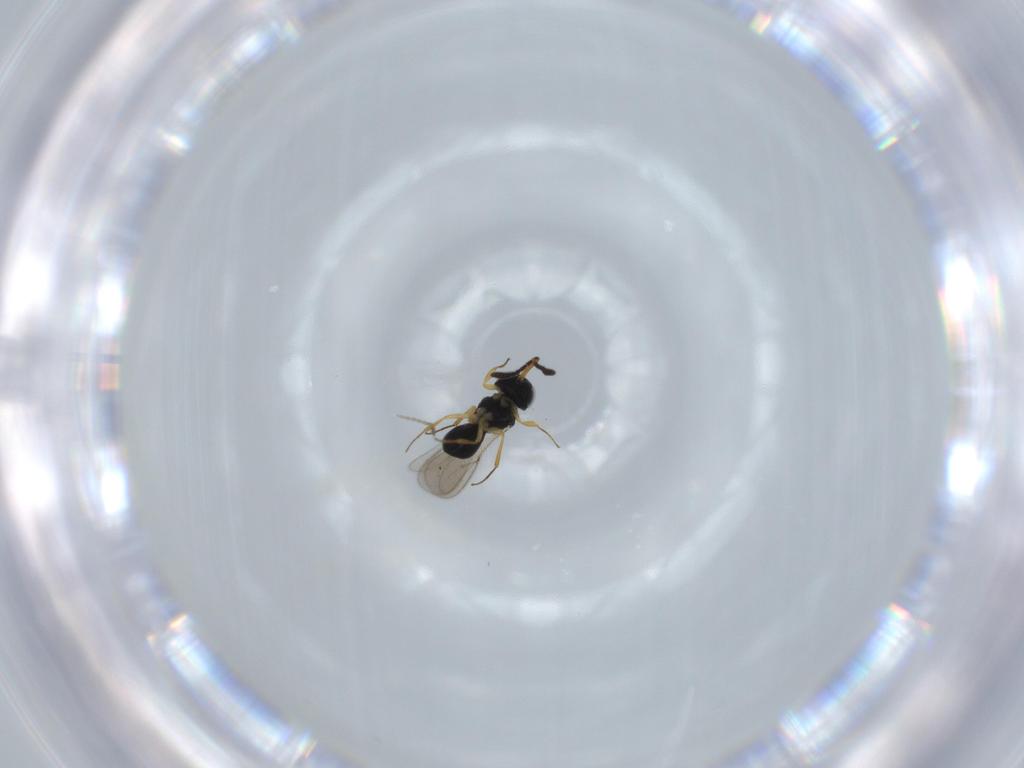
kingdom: Animalia
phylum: Arthropoda
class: Insecta
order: Hymenoptera
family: Scelionidae
